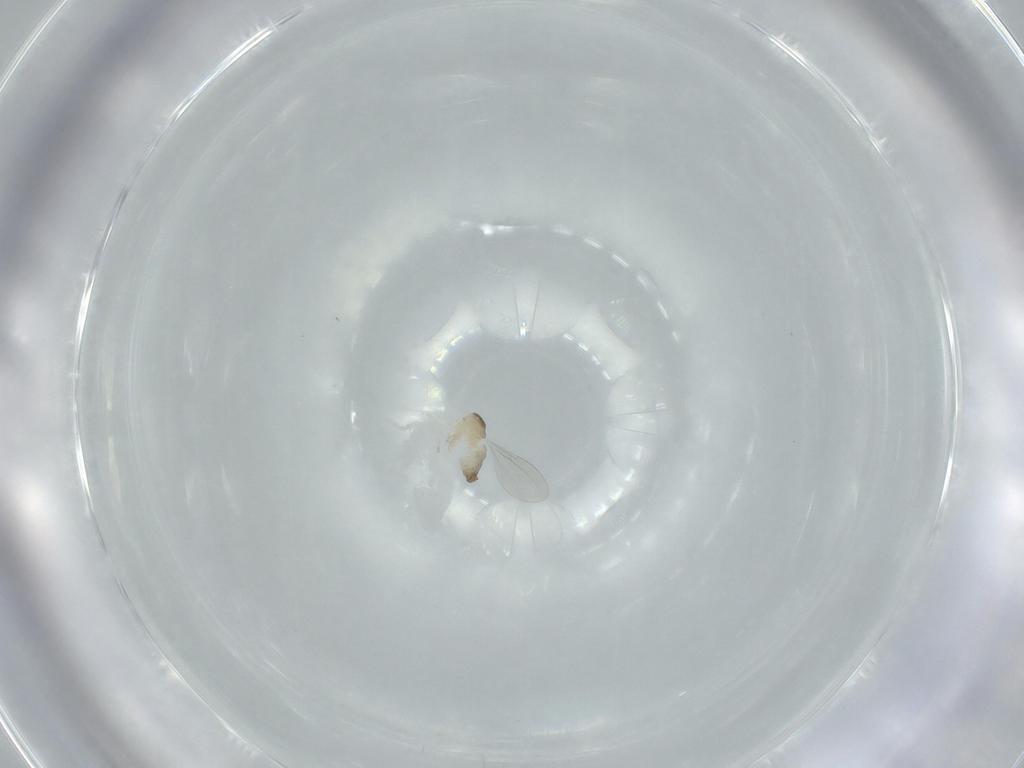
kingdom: Animalia
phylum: Arthropoda
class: Insecta
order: Diptera
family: Cecidomyiidae
